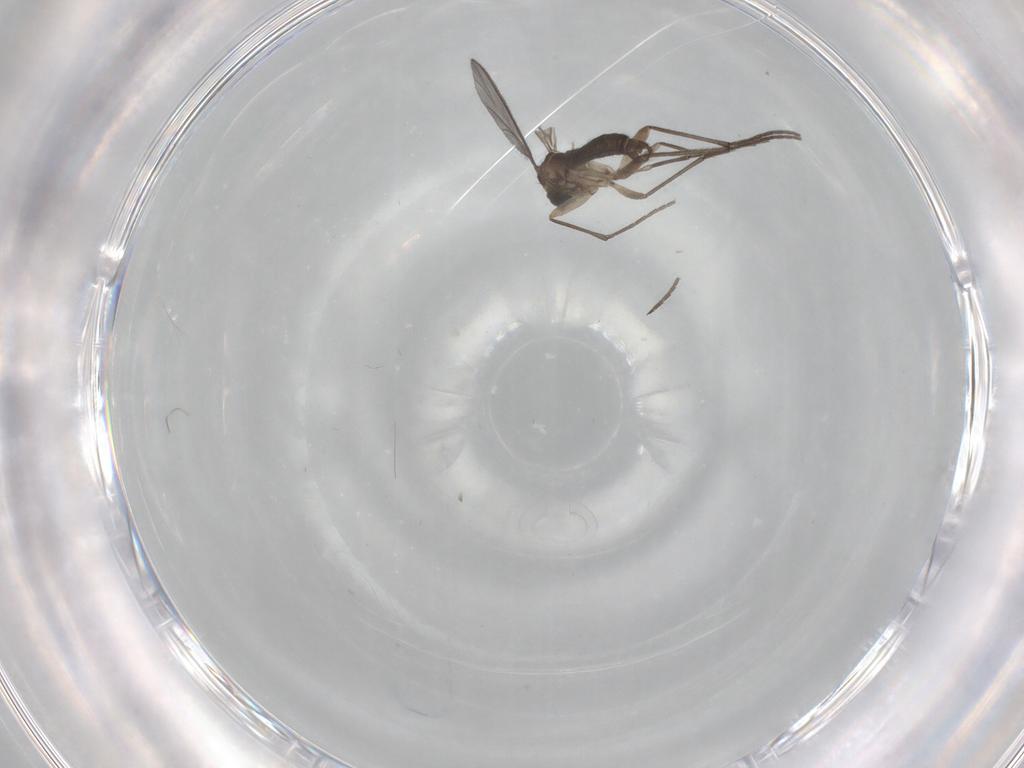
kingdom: Animalia
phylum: Arthropoda
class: Insecta
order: Diptera
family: Sciaridae
